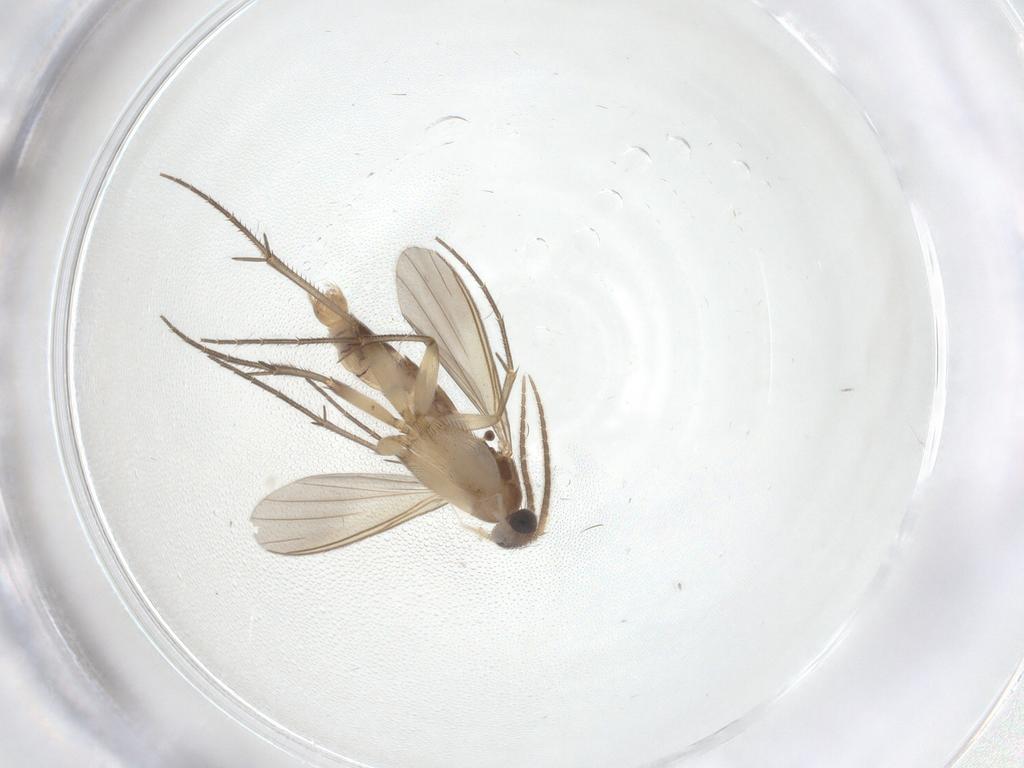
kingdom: Animalia
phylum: Arthropoda
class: Insecta
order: Diptera
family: Mycetophilidae
